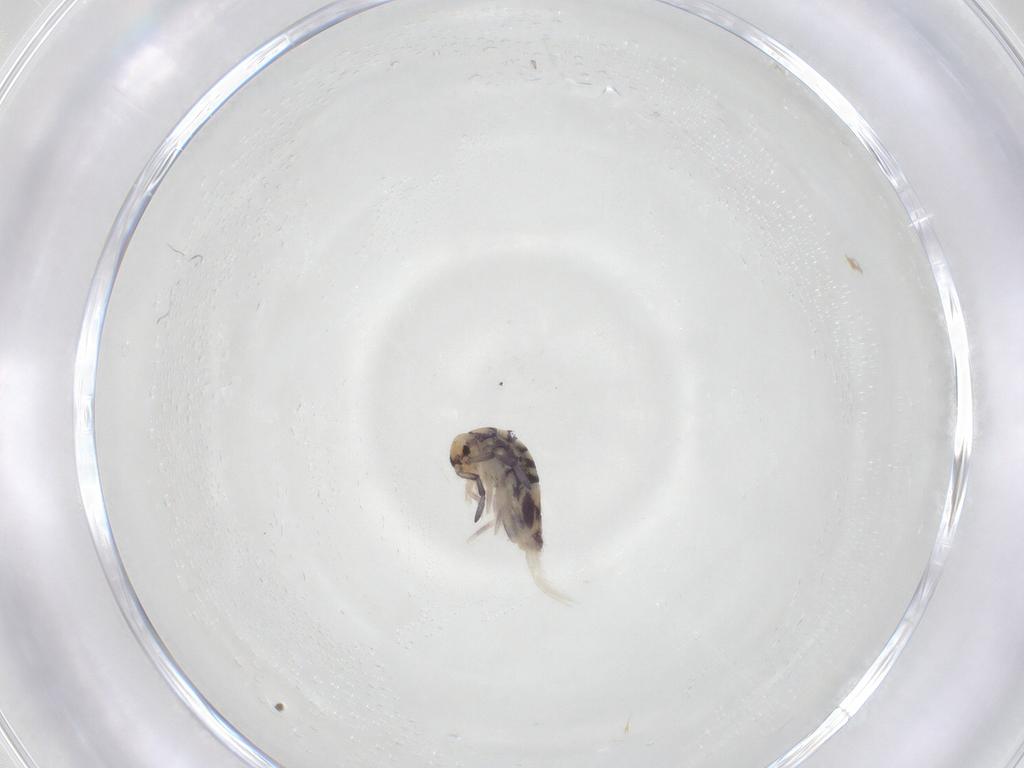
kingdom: Animalia
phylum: Arthropoda
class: Collembola
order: Entomobryomorpha
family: Entomobryidae
